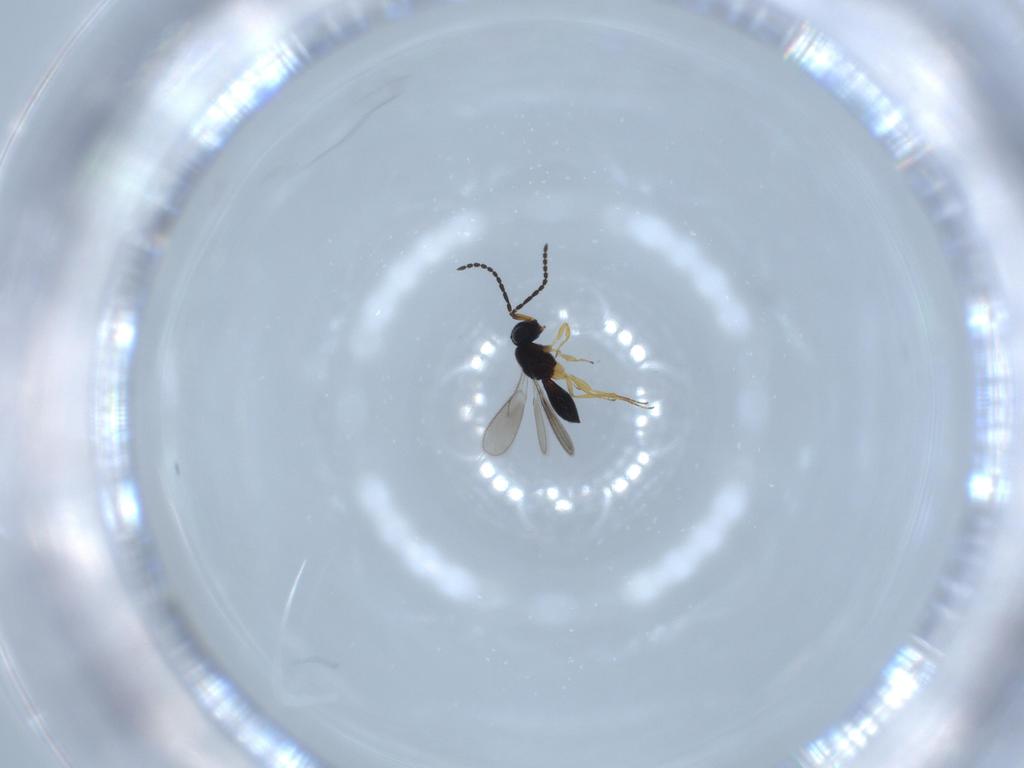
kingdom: Animalia
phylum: Arthropoda
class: Insecta
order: Hymenoptera
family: Scelionidae
